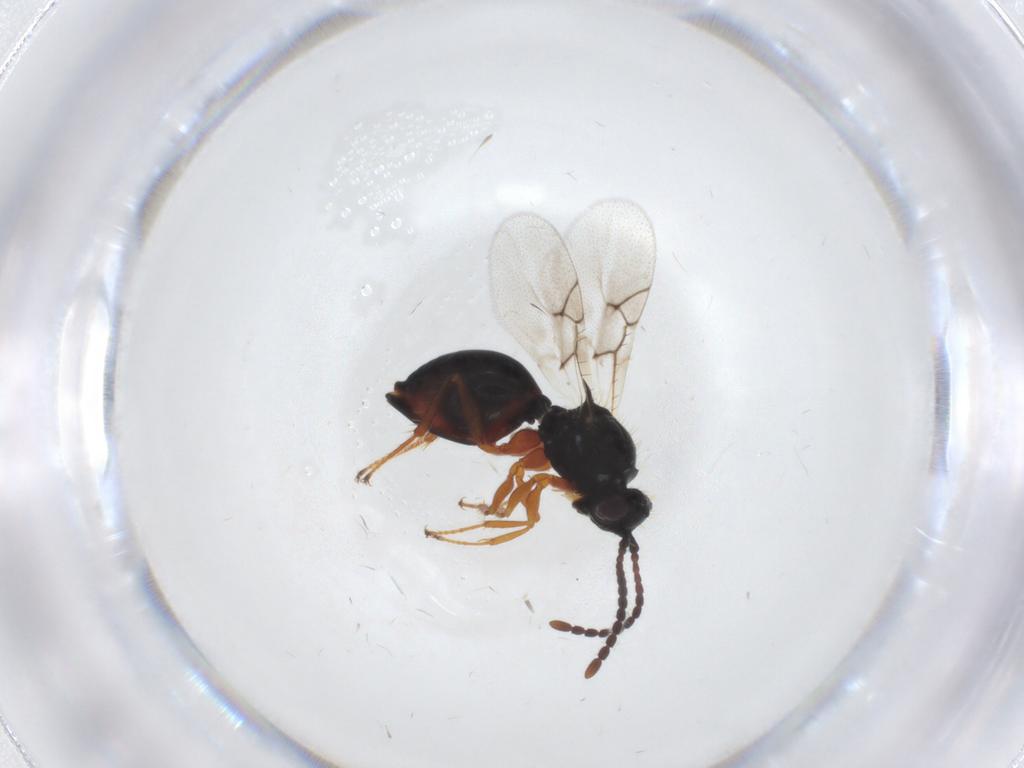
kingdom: Animalia
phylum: Arthropoda
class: Insecta
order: Hymenoptera
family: Figitidae
